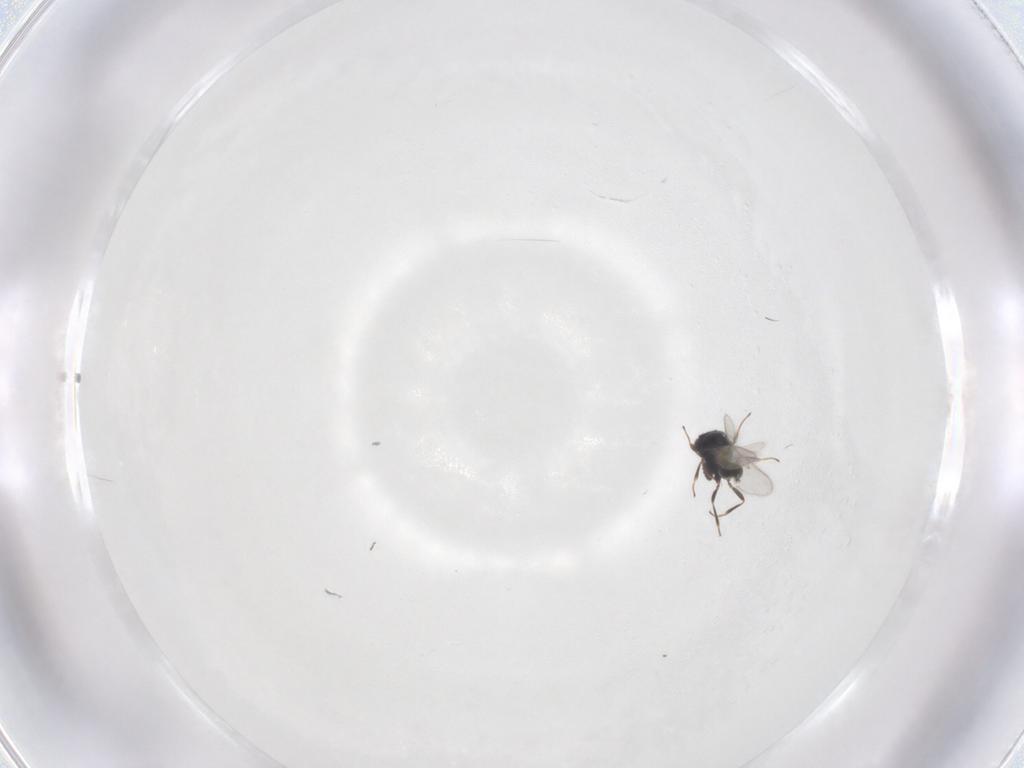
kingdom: Animalia
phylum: Arthropoda
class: Insecta
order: Hymenoptera
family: Scelionidae
